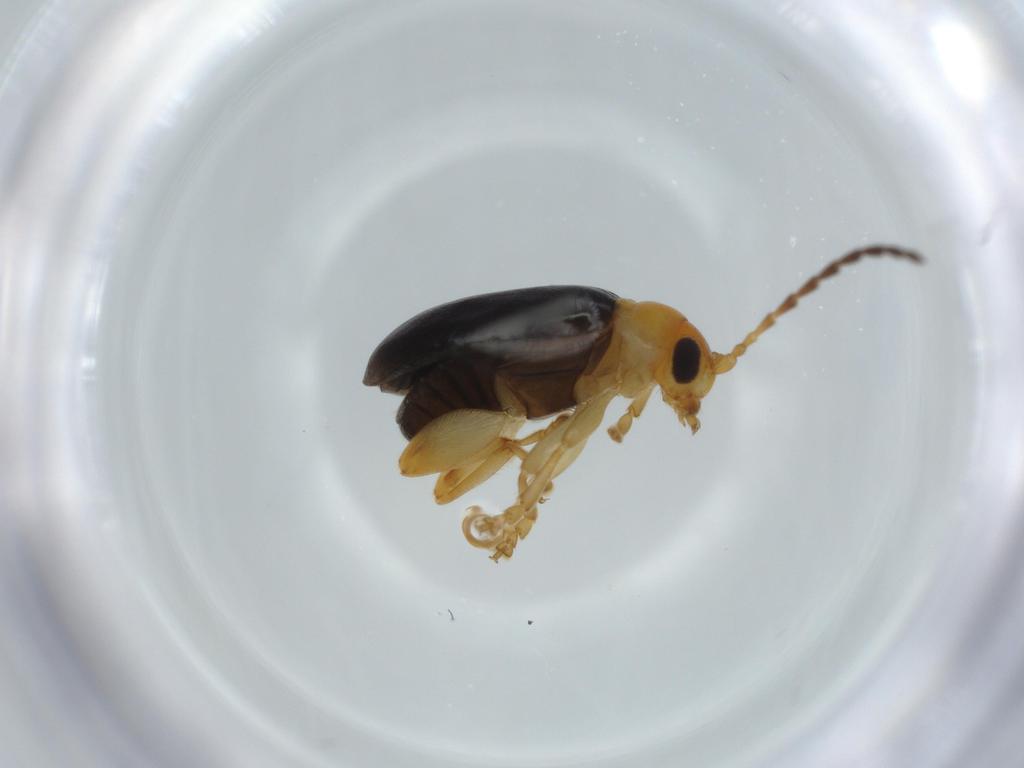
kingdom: Animalia
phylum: Arthropoda
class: Insecta
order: Coleoptera
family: Chrysomelidae
